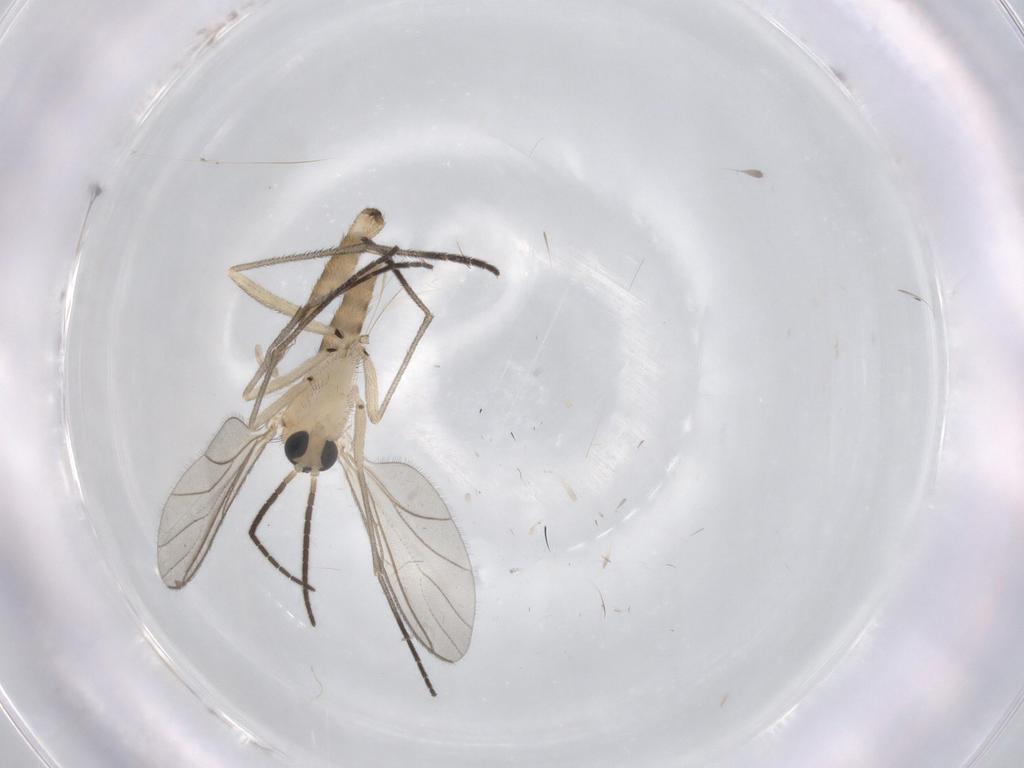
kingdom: Animalia
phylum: Arthropoda
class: Insecta
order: Diptera
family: Sciaridae
